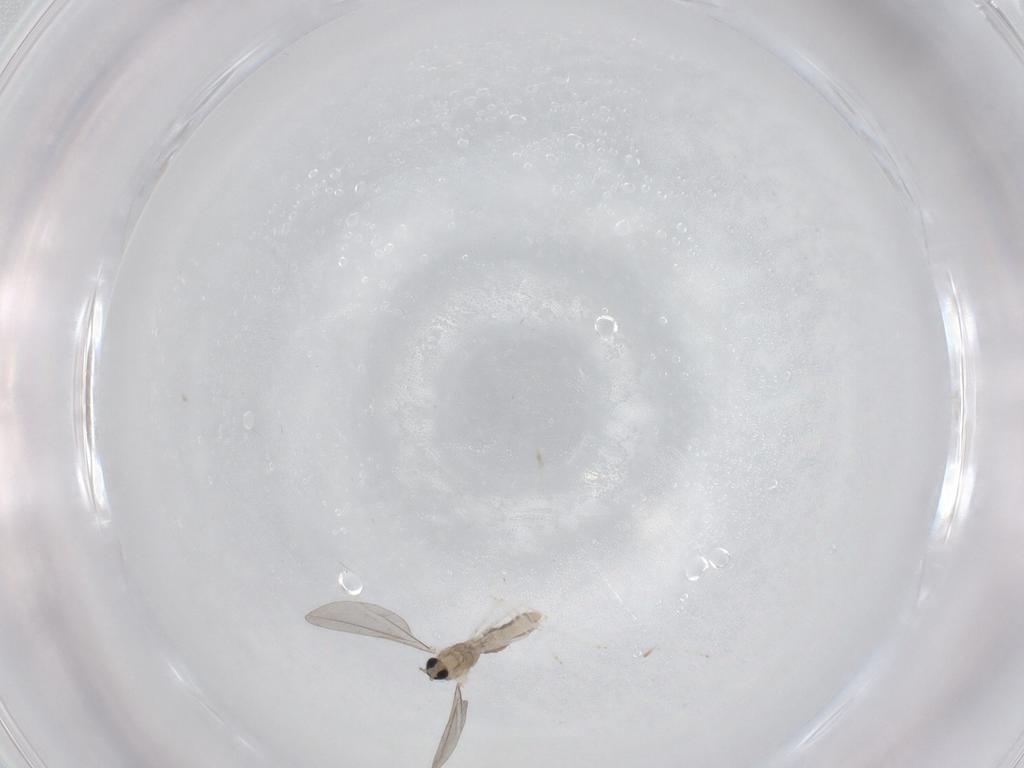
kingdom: Animalia
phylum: Arthropoda
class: Insecta
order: Diptera
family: Cecidomyiidae
